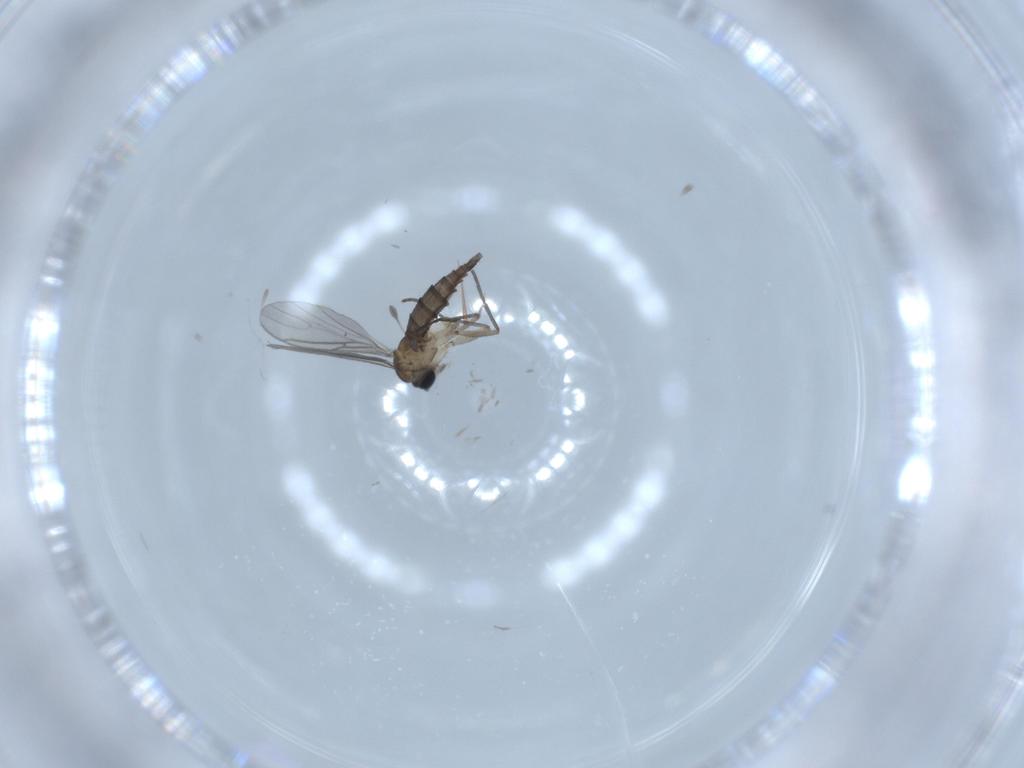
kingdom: Animalia
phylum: Arthropoda
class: Insecta
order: Diptera
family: Sciaridae
